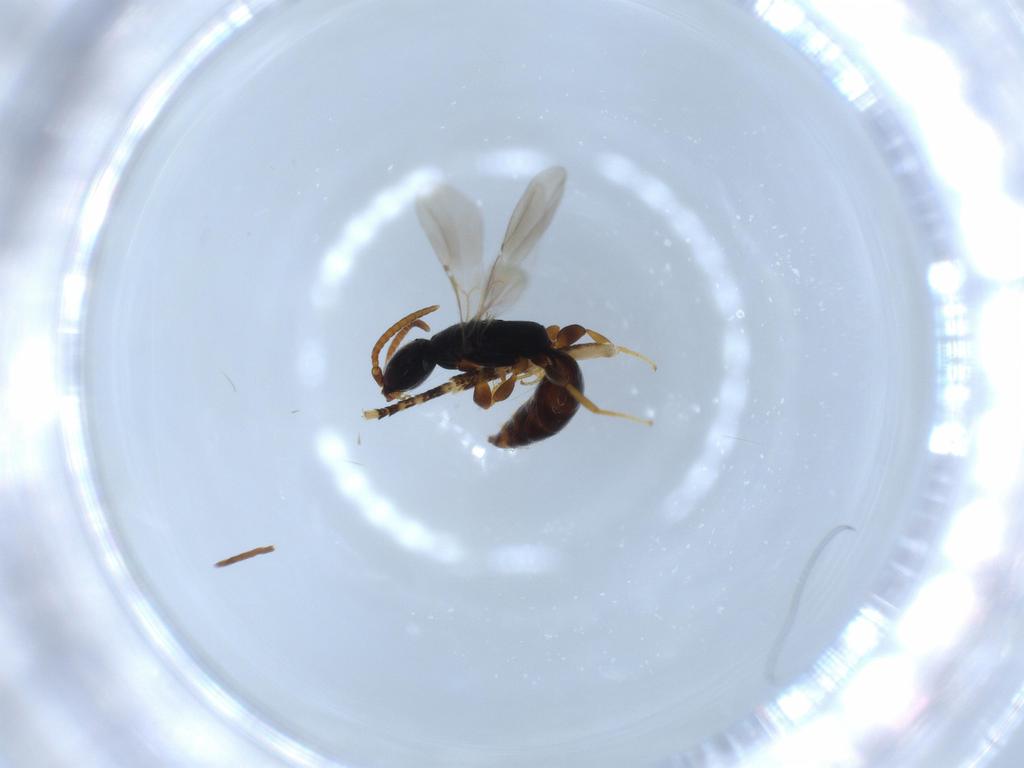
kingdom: Animalia
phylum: Arthropoda
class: Insecta
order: Hymenoptera
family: Bethylidae
